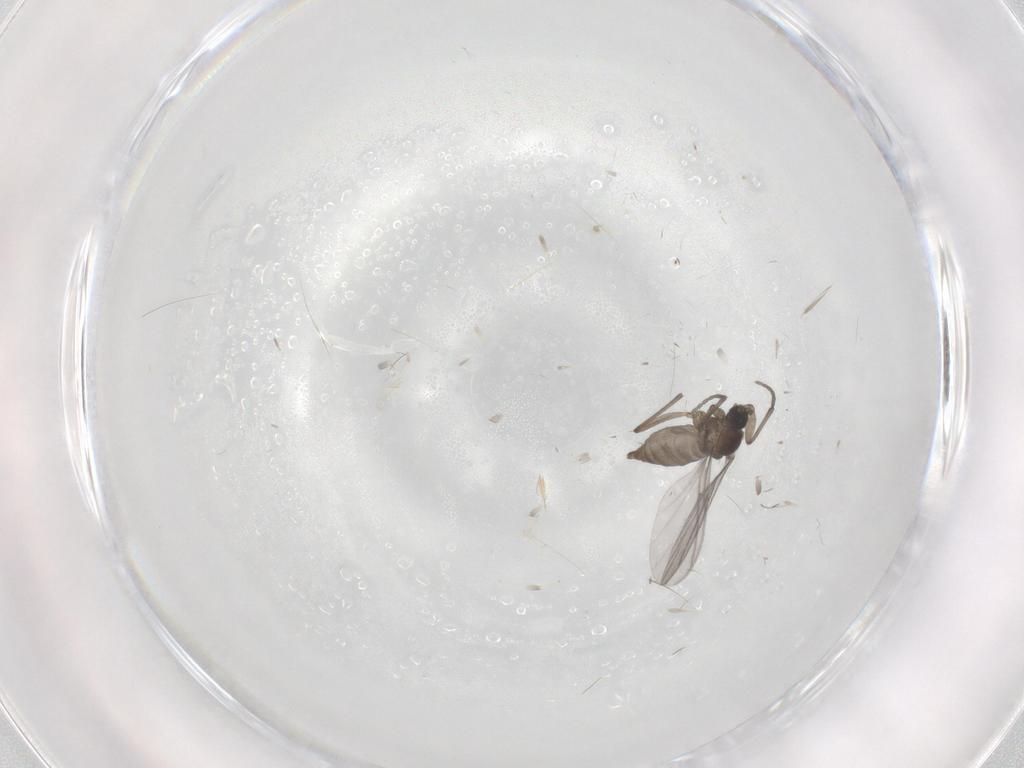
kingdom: Animalia
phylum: Arthropoda
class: Insecta
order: Diptera
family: Sciaridae
